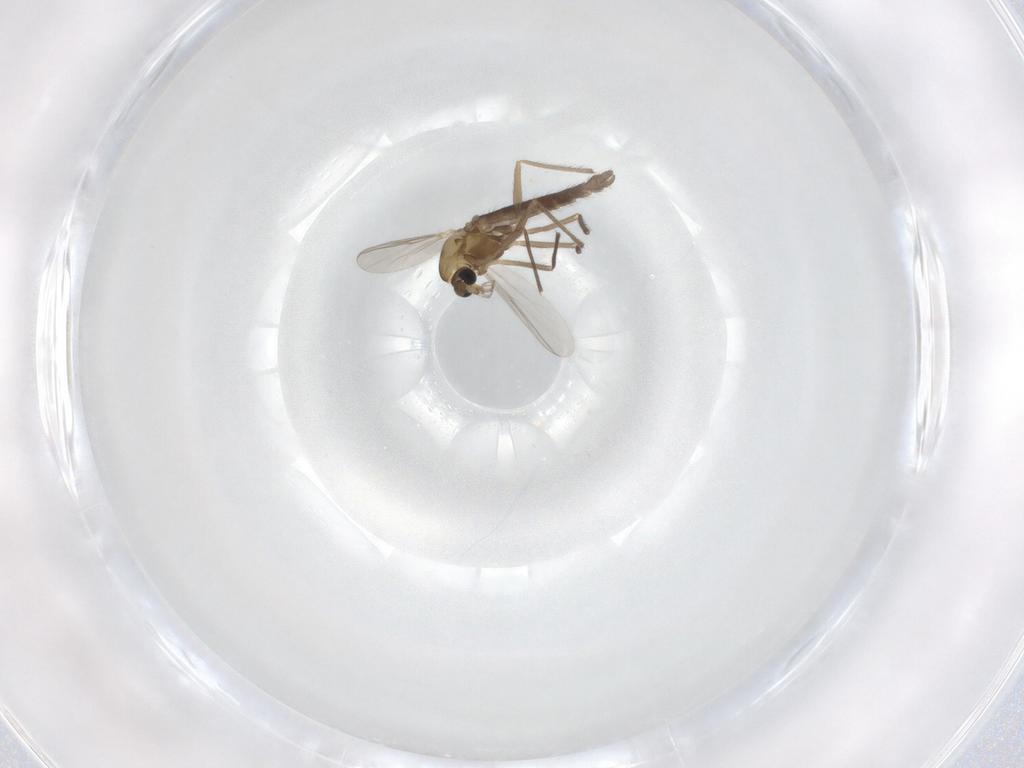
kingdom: Animalia
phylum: Arthropoda
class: Insecta
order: Diptera
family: Chironomidae
